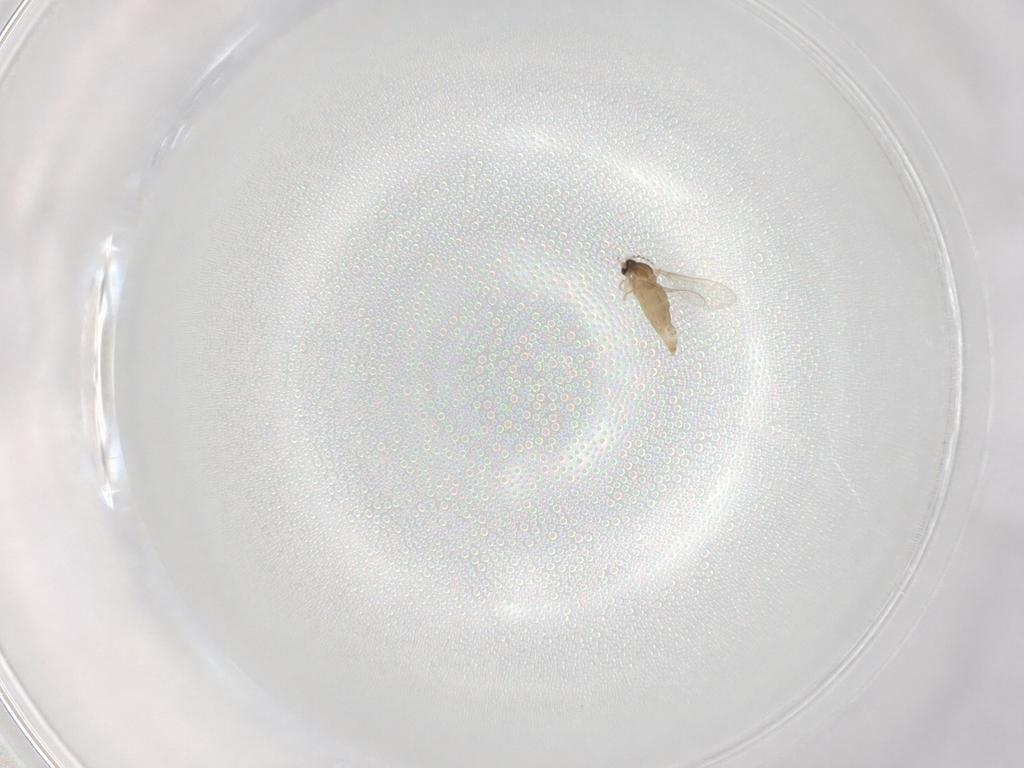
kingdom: Animalia
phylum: Arthropoda
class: Insecta
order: Diptera
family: Cecidomyiidae
